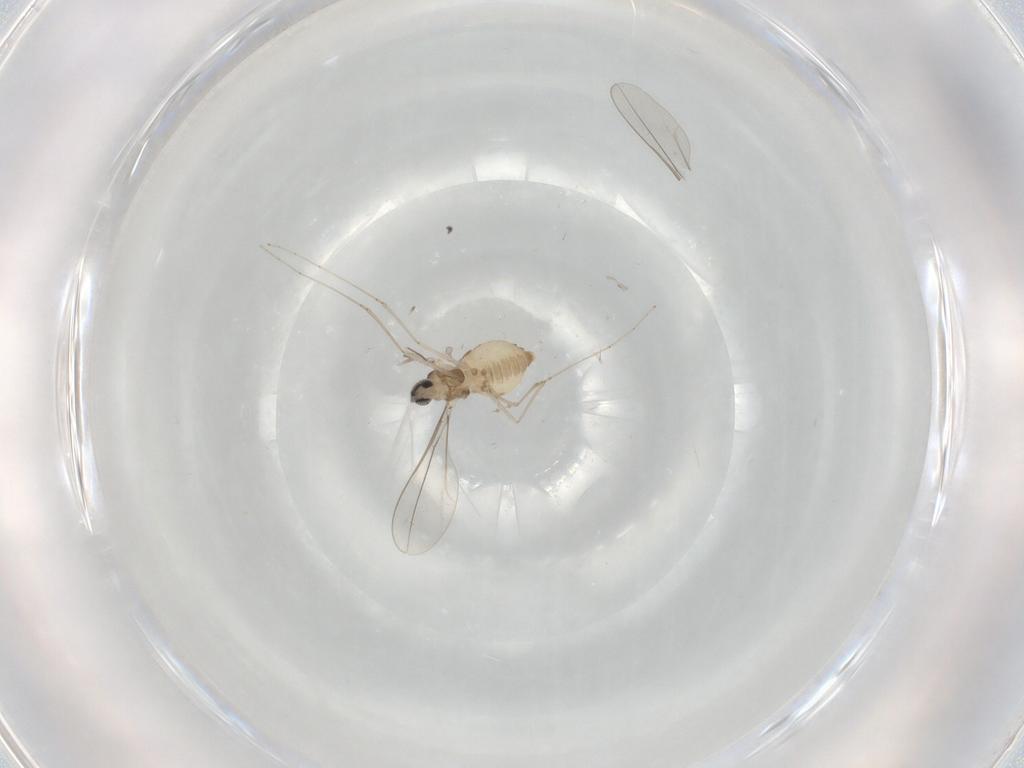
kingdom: Animalia
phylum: Arthropoda
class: Insecta
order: Diptera
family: Cecidomyiidae
